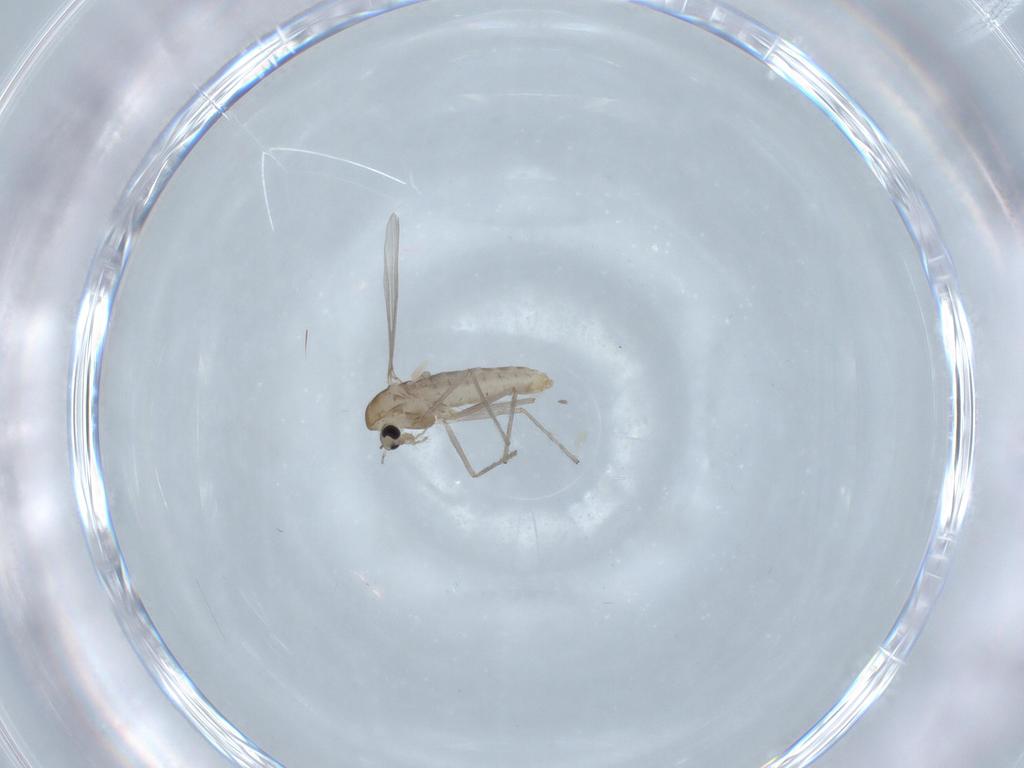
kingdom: Animalia
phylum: Arthropoda
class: Insecta
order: Diptera
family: Chironomidae
